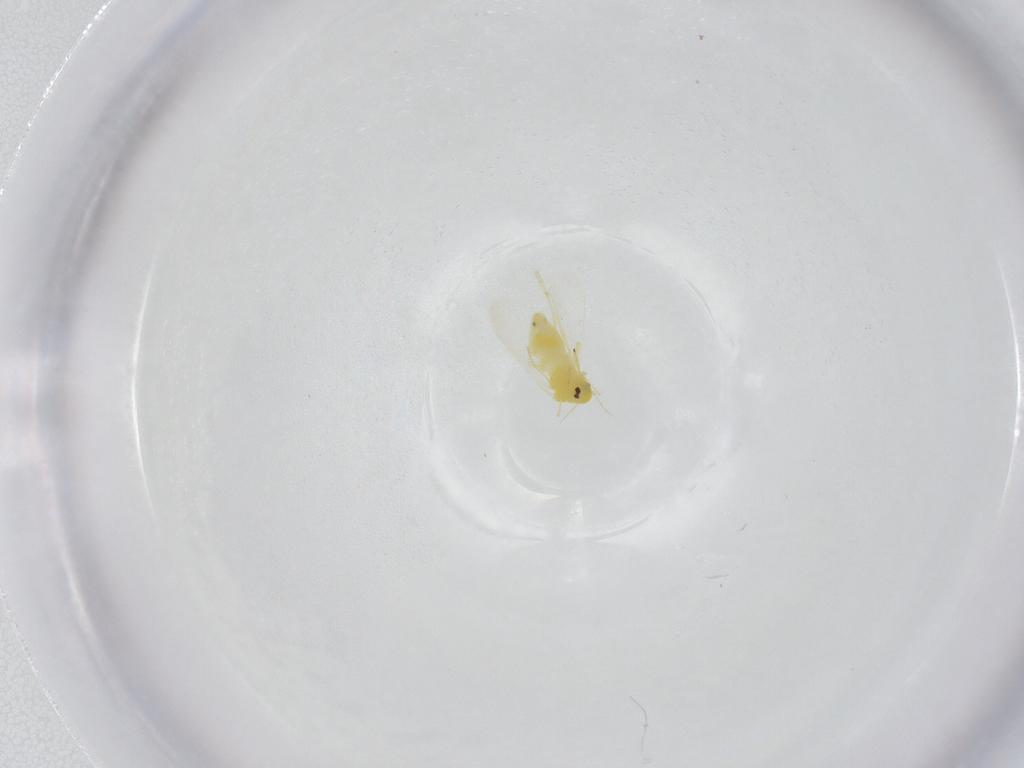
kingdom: Animalia
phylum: Arthropoda
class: Insecta
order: Hemiptera
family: Aleyrodidae
